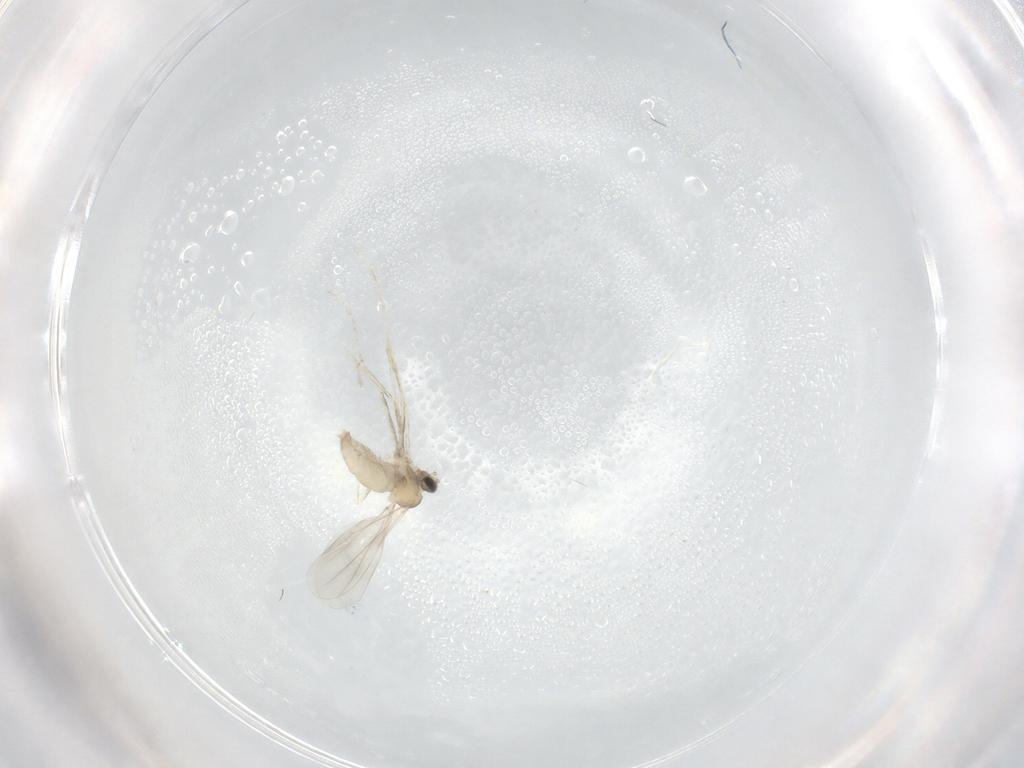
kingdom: Animalia
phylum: Arthropoda
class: Insecta
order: Diptera
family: Cecidomyiidae
